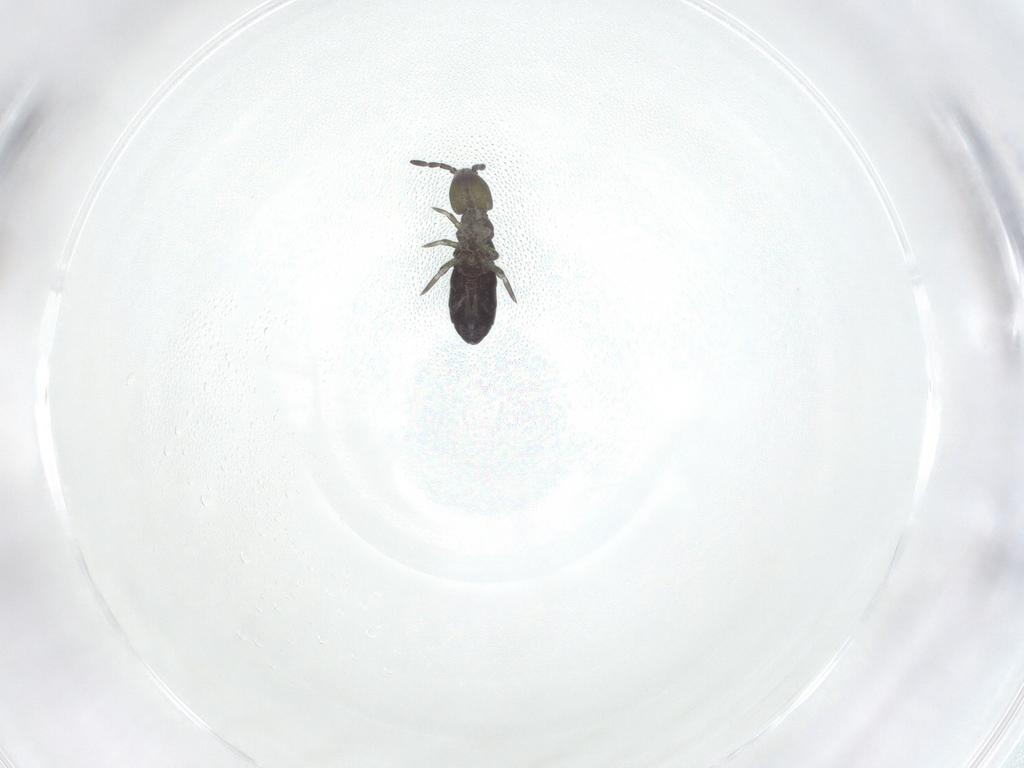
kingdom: Animalia
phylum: Arthropoda
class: Collembola
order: Entomobryomorpha
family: Isotomidae
